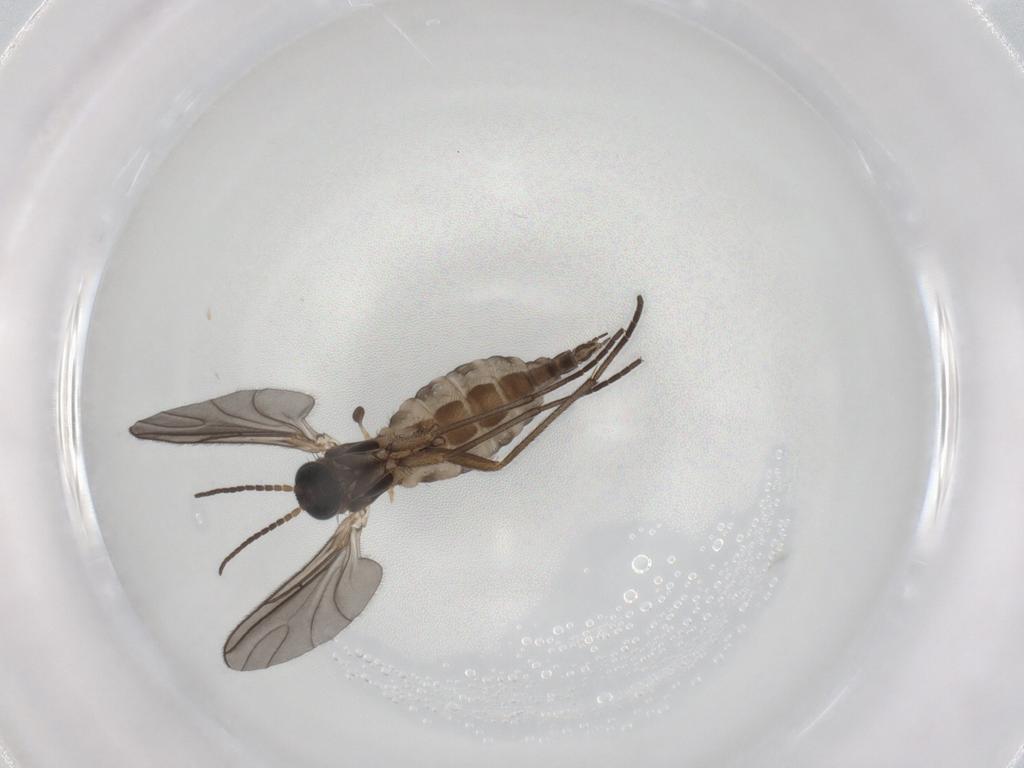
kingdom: Animalia
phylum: Arthropoda
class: Insecta
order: Diptera
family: Sciaridae
